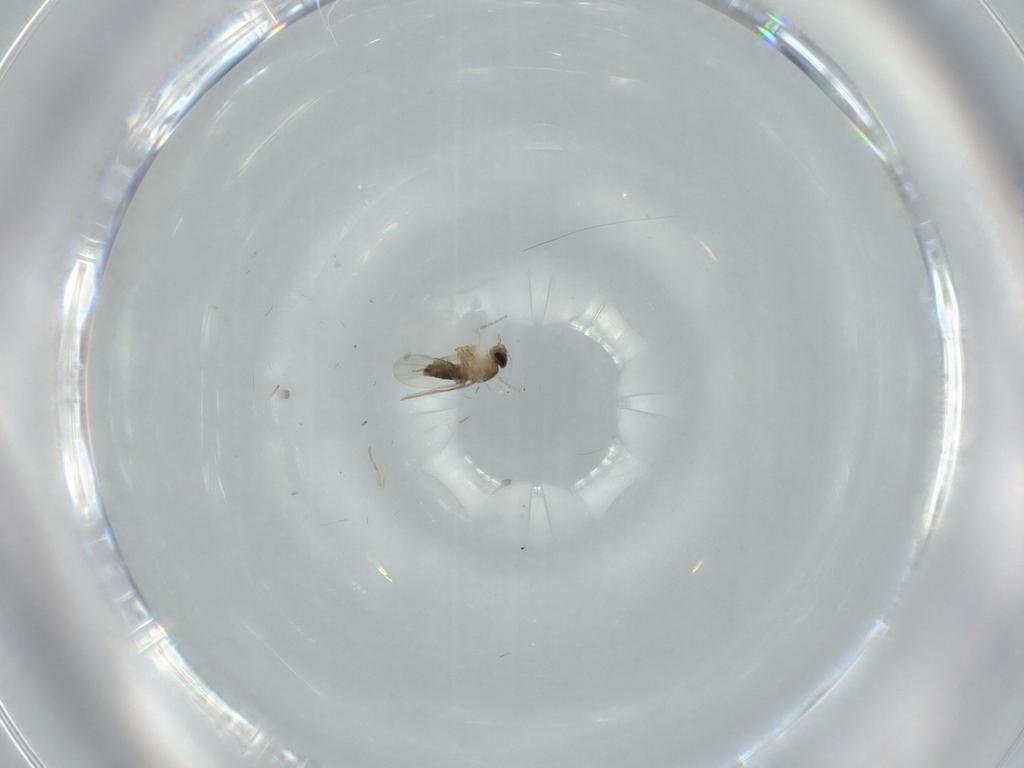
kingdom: Animalia
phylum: Arthropoda
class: Insecta
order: Diptera
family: Phoridae
